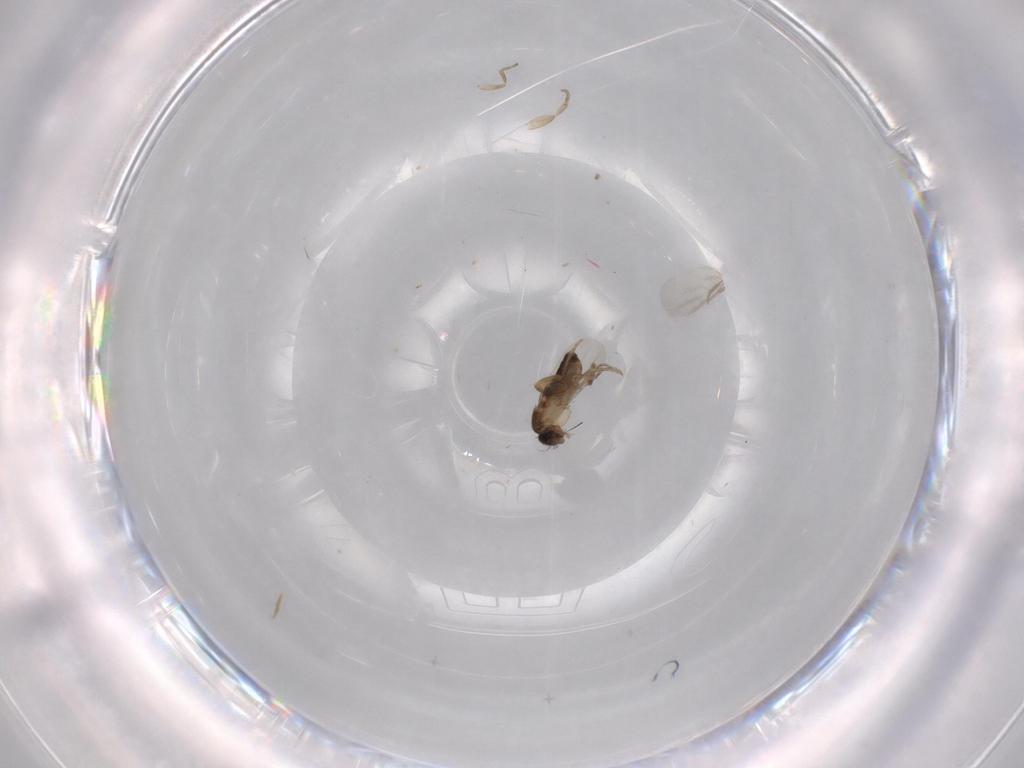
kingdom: Animalia
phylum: Arthropoda
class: Insecta
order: Diptera
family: Phoridae
